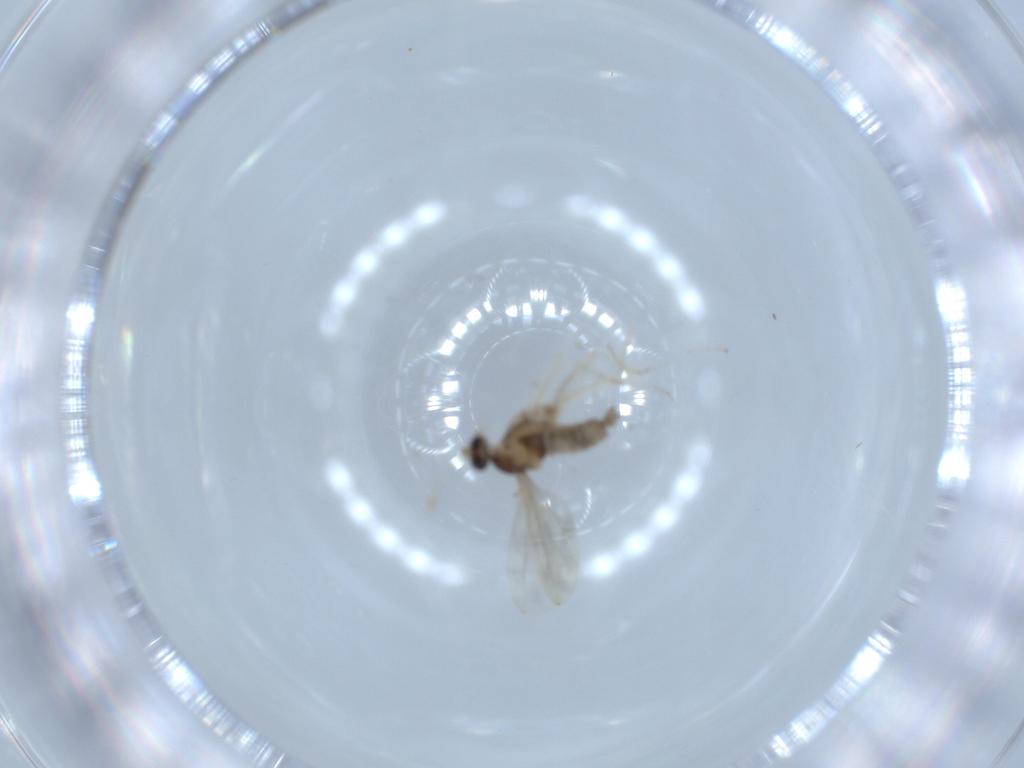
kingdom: Animalia
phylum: Arthropoda
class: Insecta
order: Diptera
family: Cecidomyiidae
